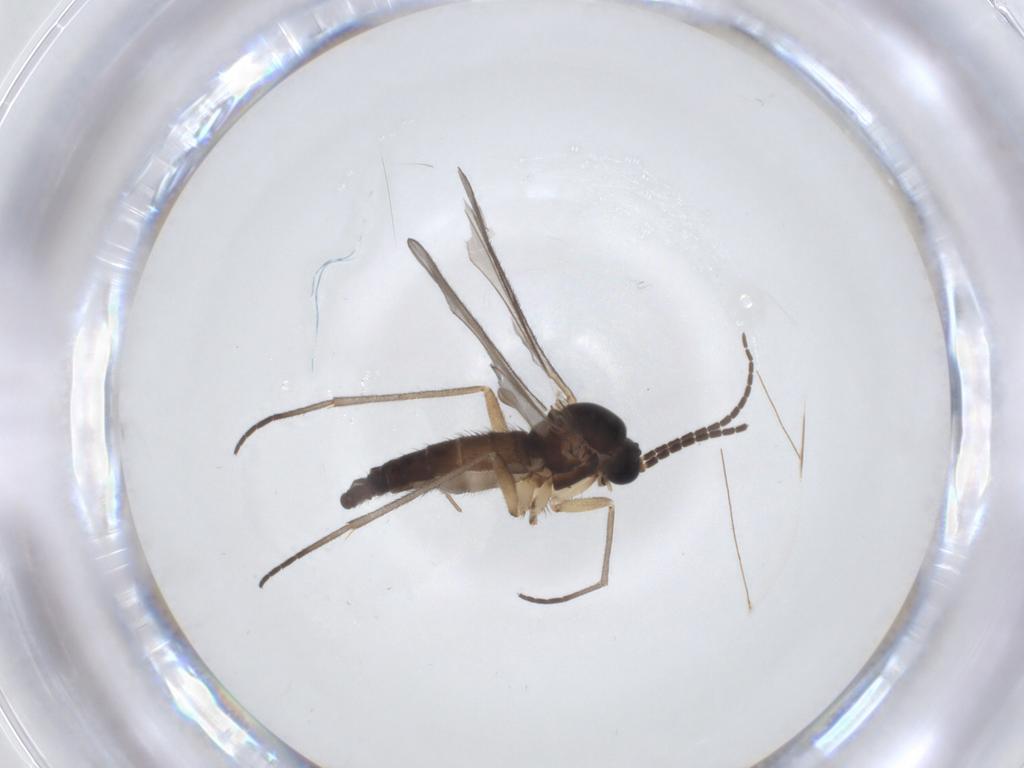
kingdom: Animalia
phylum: Arthropoda
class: Insecta
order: Diptera
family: Sciaridae
